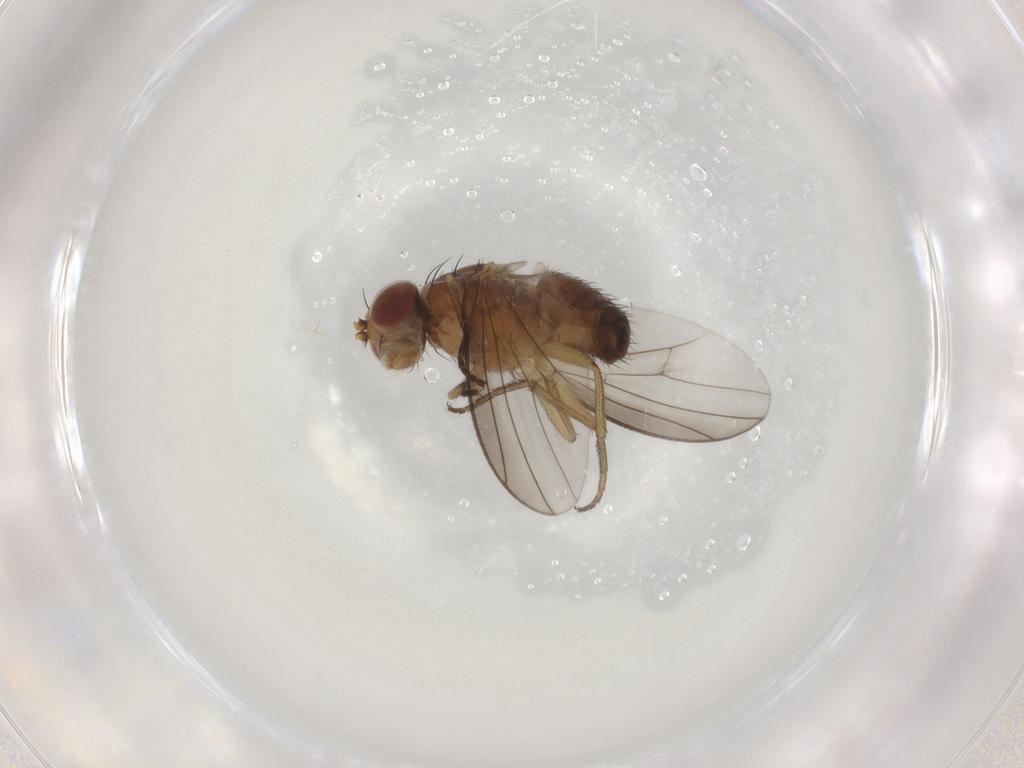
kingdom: Animalia
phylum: Arthropoda
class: Insecta
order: Diptera
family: Heleomyzidae
